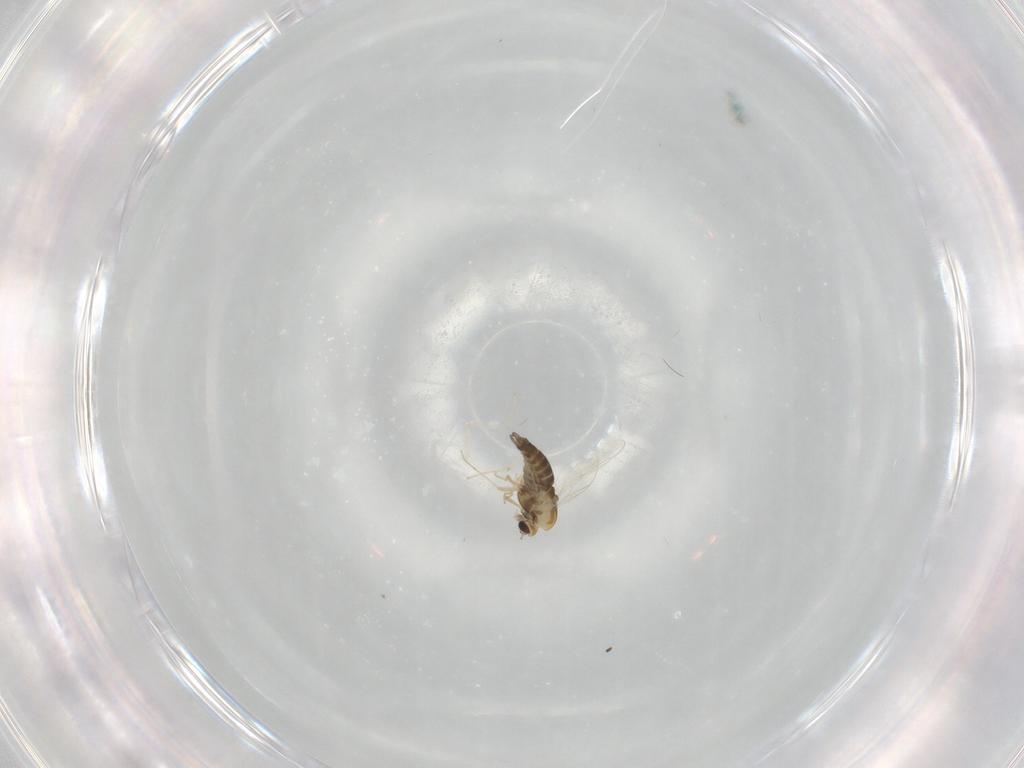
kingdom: Animalia
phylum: Arthropoda
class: Insecta
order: Diptera
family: Chironomidae
